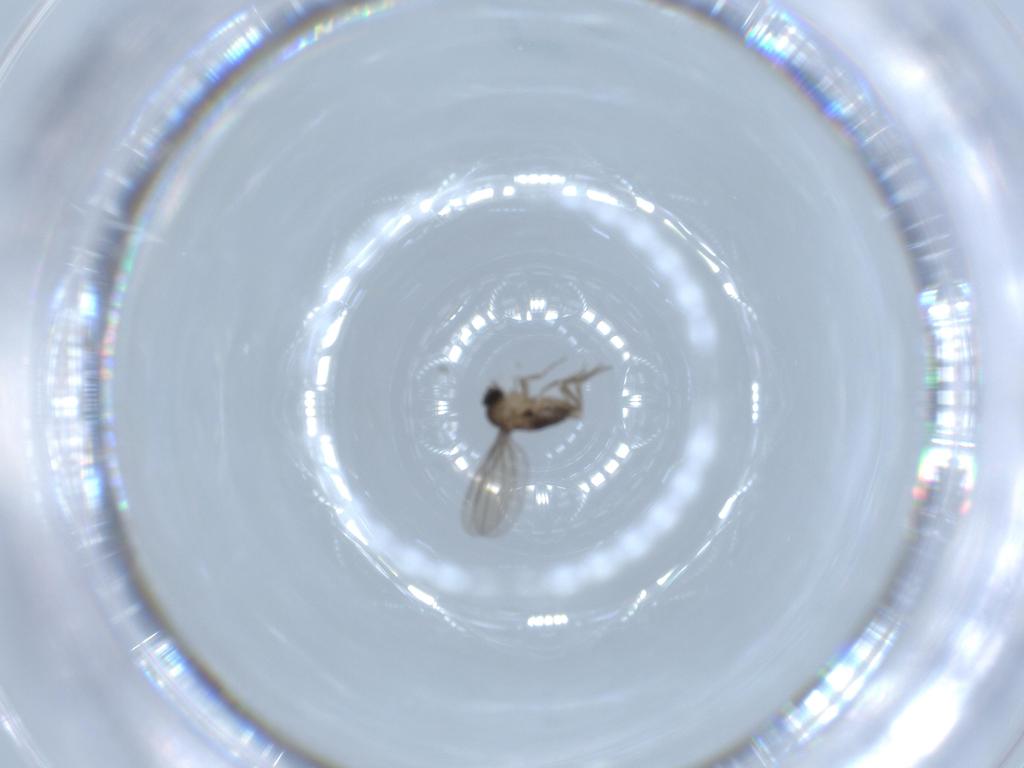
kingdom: Animalia
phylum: Arthropoda
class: Insecta
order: Diptera
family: Phoridae
